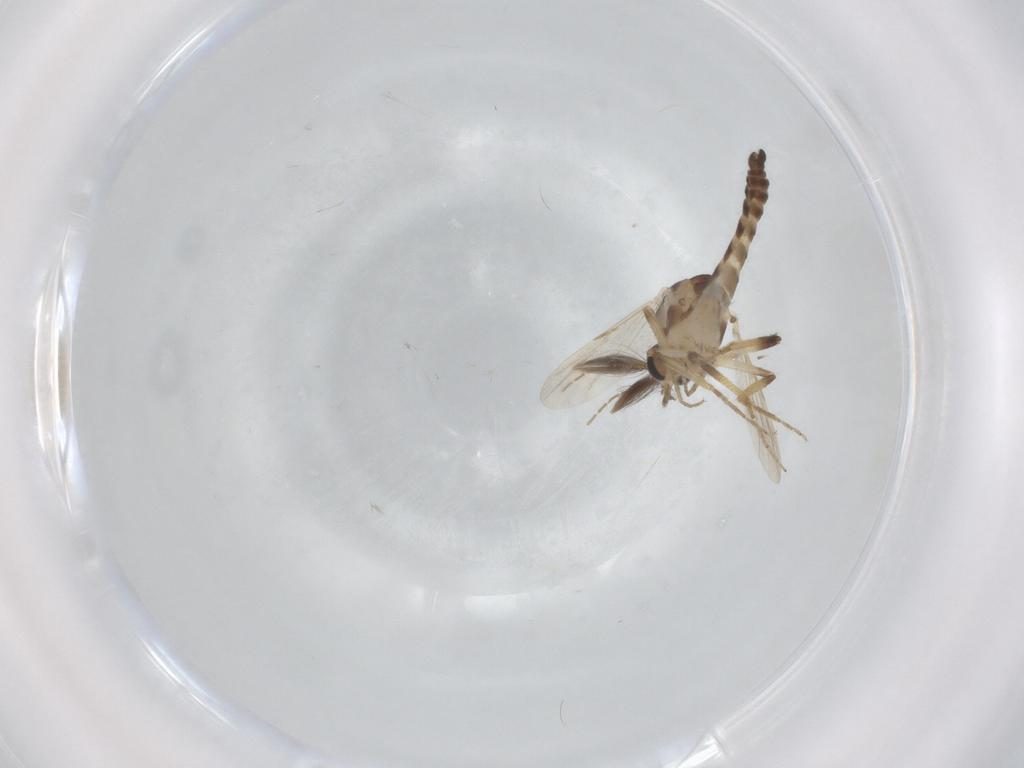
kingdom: Animalia
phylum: Arthropoda
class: Insecta
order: Diptera
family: Ceratopogonidae
